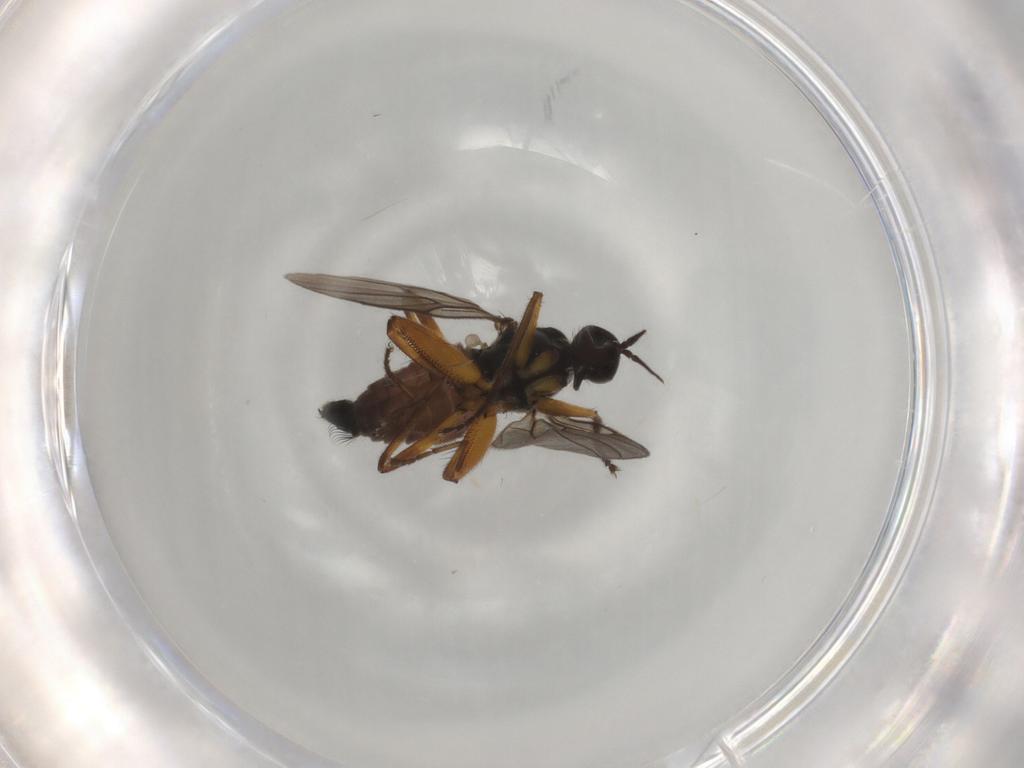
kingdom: Animalia
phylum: Arthropoda
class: Insecta
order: Diptera
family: Hybotidae
